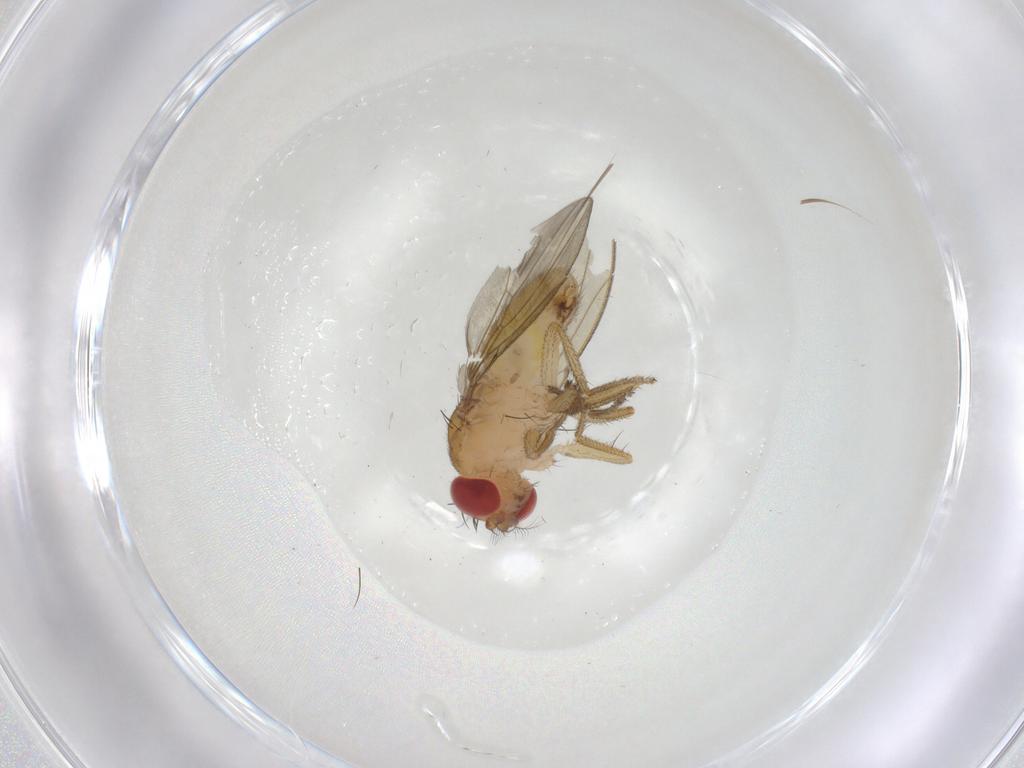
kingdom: Animalia
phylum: Arthropoda
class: Insecta
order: Diptera
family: Drosophilidae
